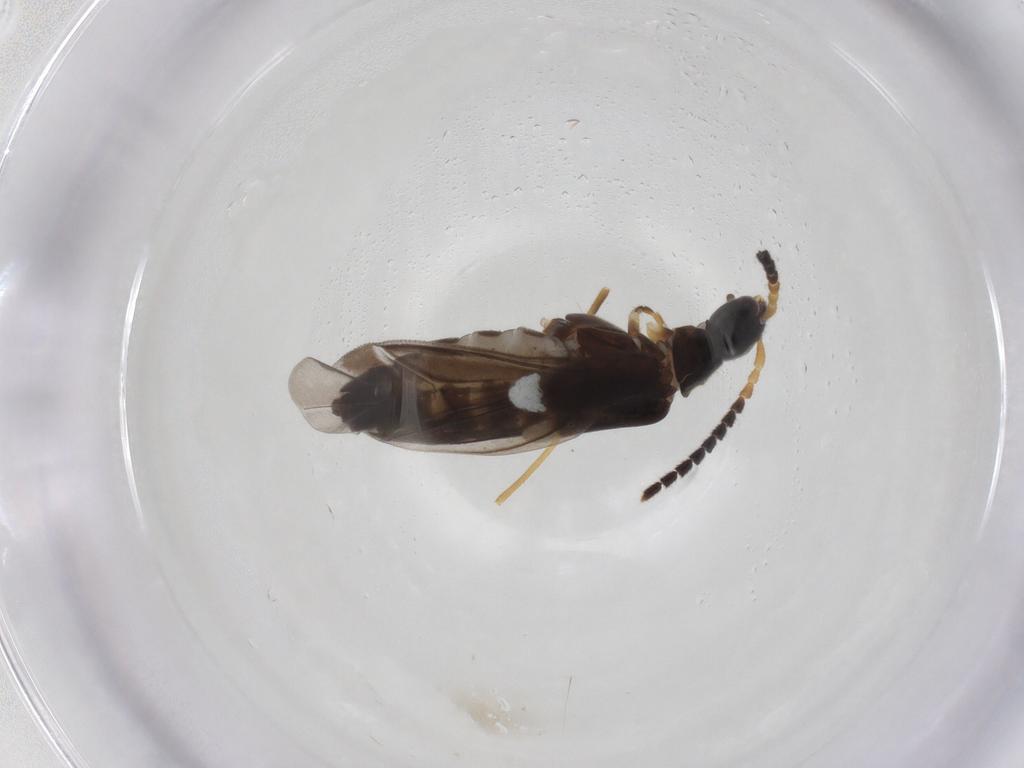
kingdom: Animalia
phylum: Arthropoda
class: Insecta
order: Coleoptera
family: Cantharidae
